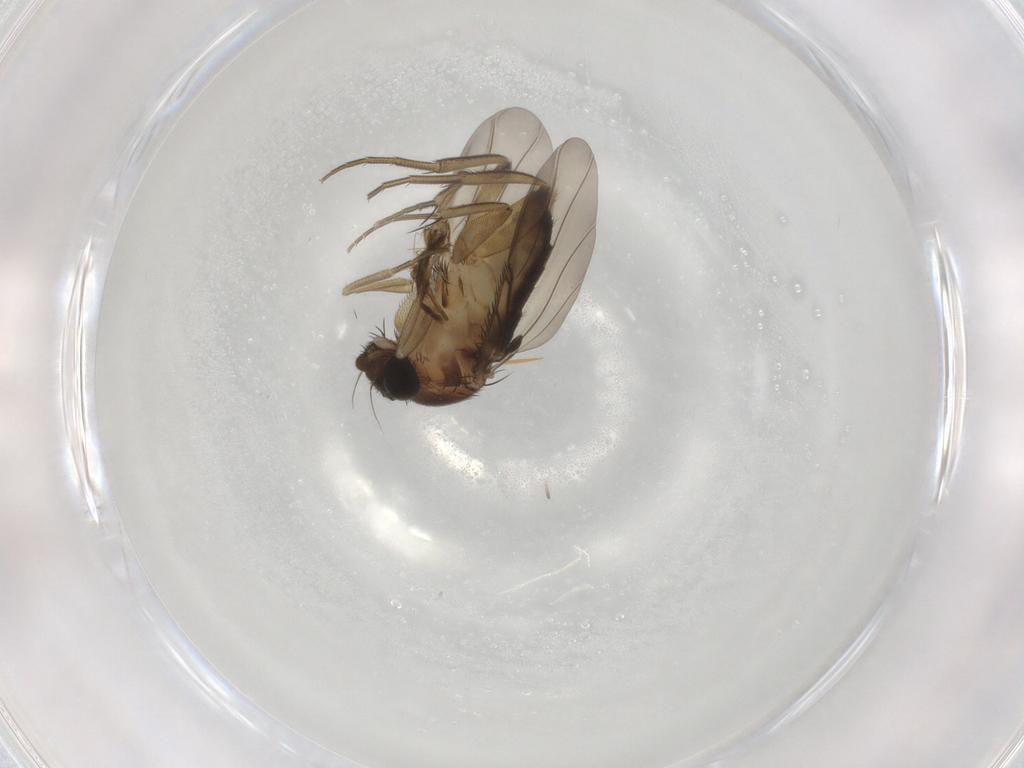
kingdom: Animalia
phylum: Arthropoda
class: Insecta
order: Diptera
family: Phoridae
